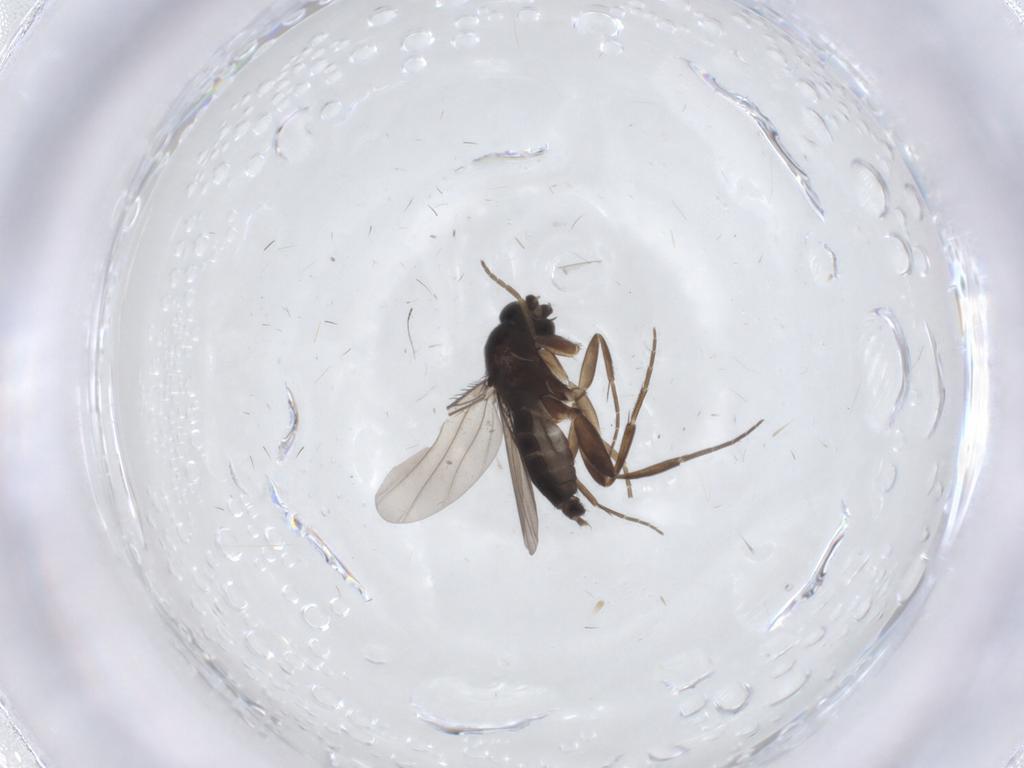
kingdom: Animalia
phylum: Arthropoda
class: Insecta
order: Diptera
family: Phoridae
